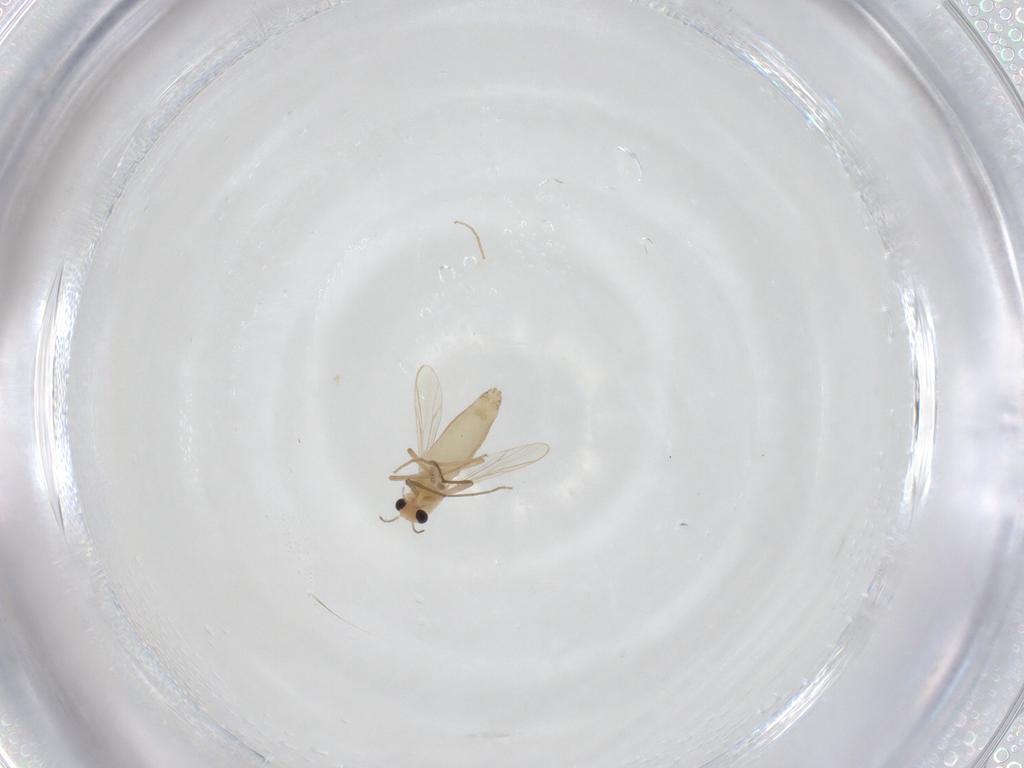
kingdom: Animalia
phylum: Arthropoda
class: Insecta
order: Diptera
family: Chironomidae
